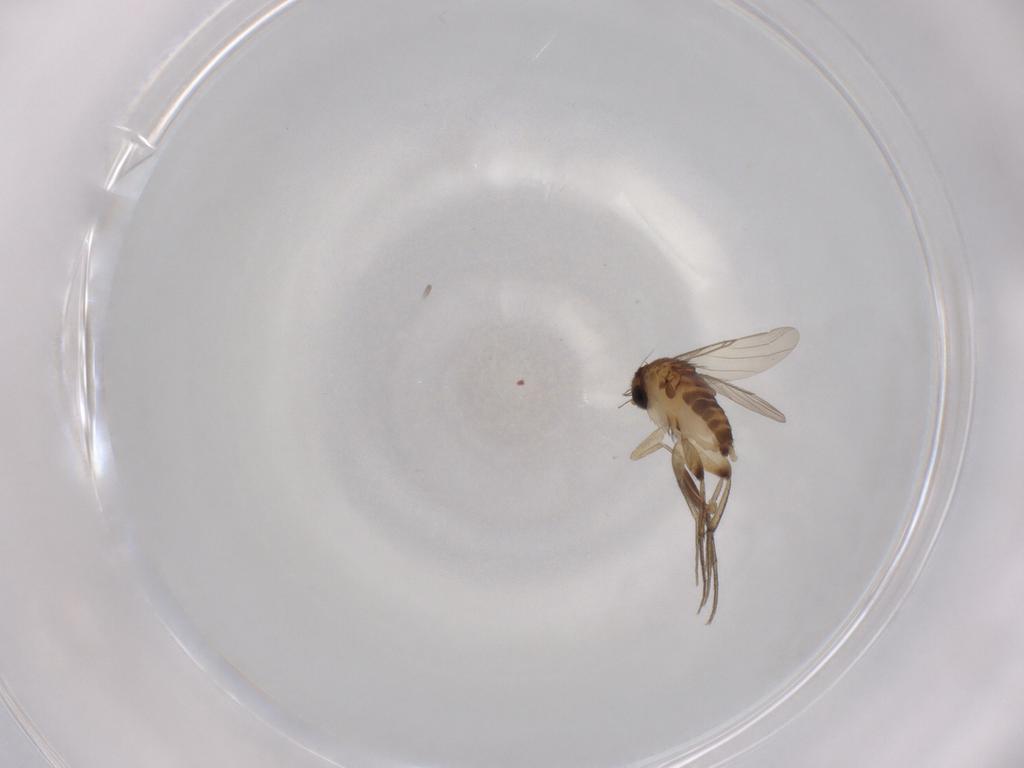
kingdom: Animalia
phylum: Arthropoda
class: Insecta
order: Diptera
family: Phoridae
